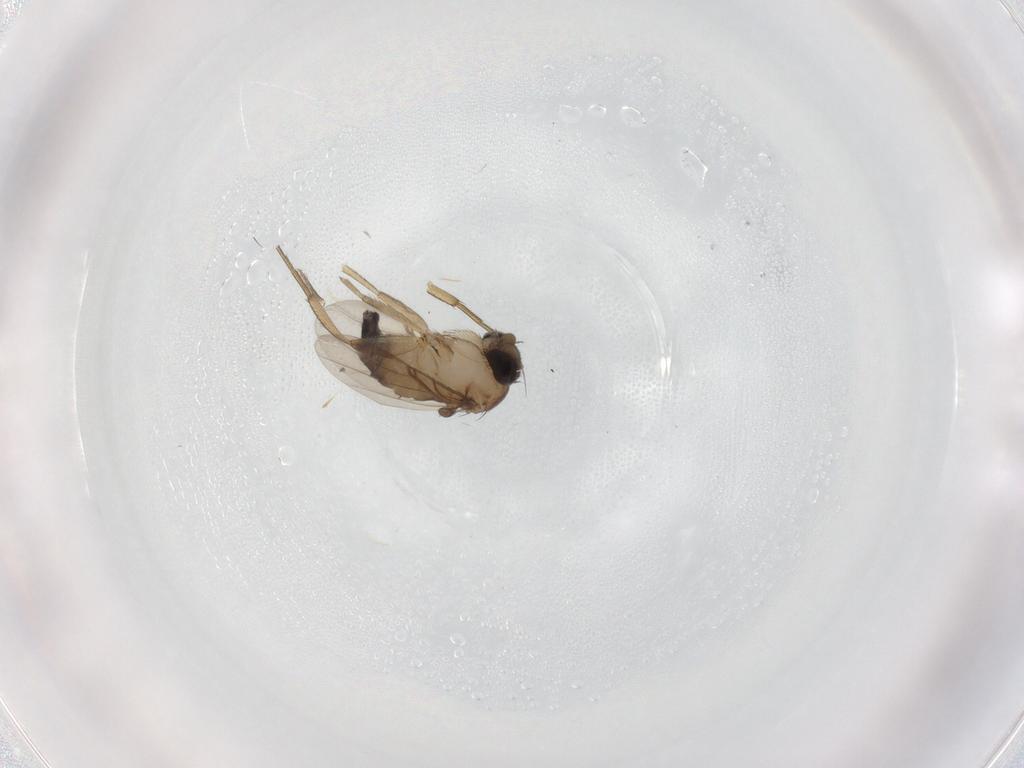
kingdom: Animalia
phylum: Arthropoda
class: Insecta
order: Diptera
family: Phoridae
